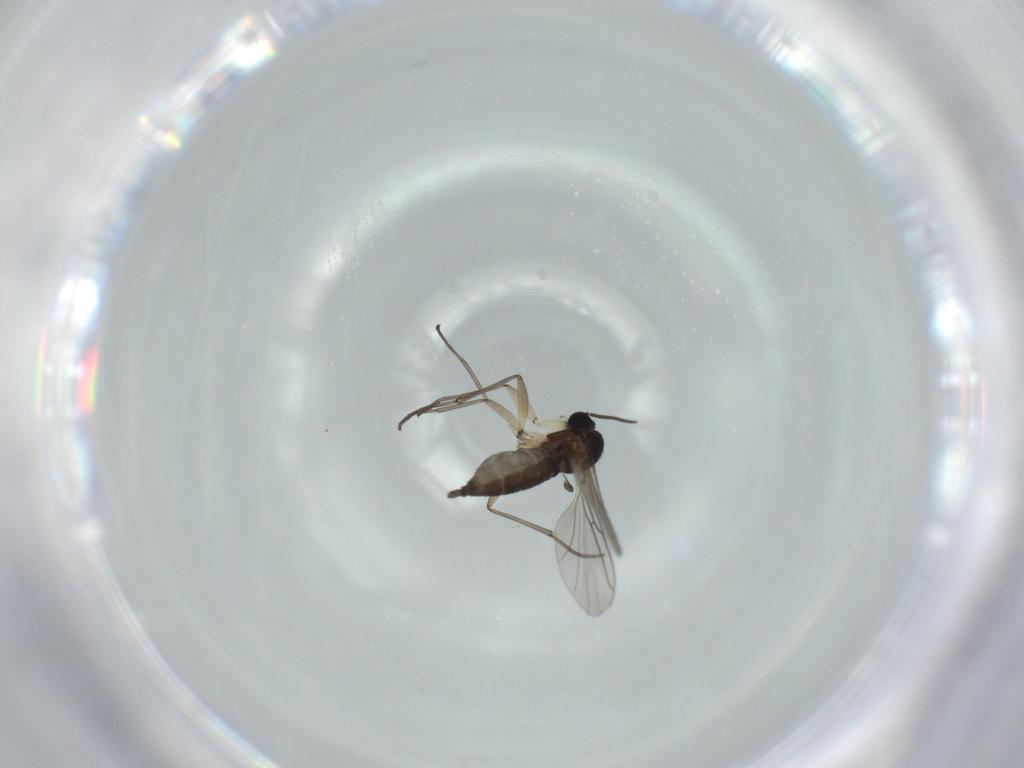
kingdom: Animalia
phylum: Arthropoda
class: Insecta
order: Diptera
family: Sciaridae
